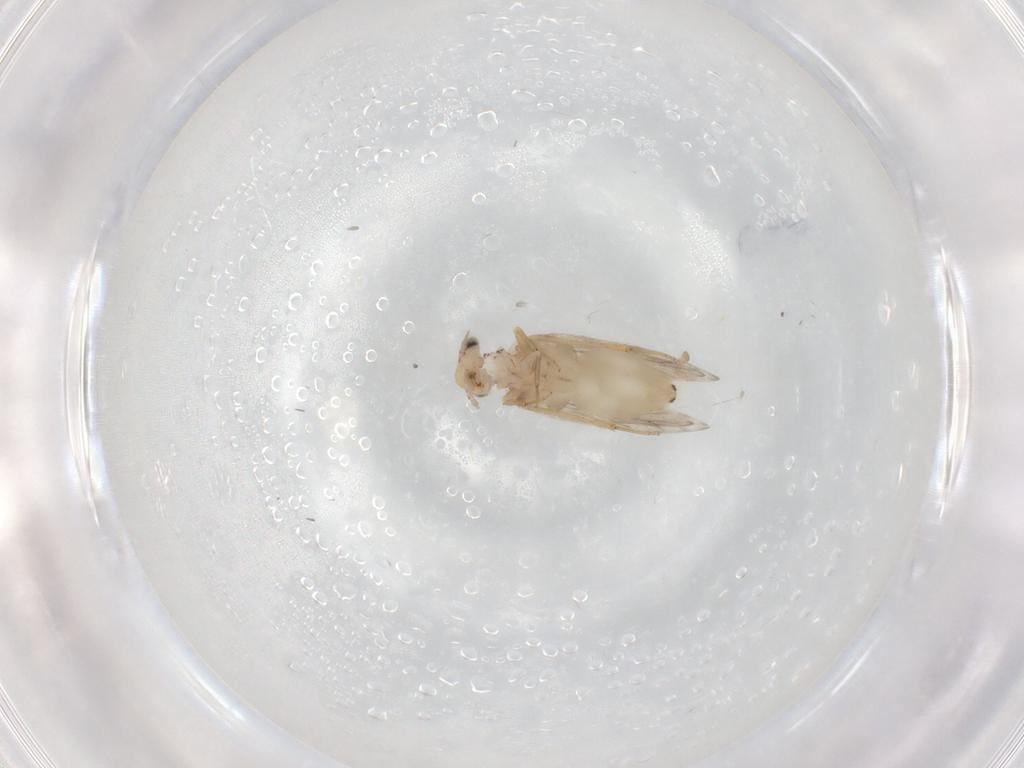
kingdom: Animalia
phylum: Arthropoda
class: Insecta
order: Psocodea
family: Lepidopsocidae
